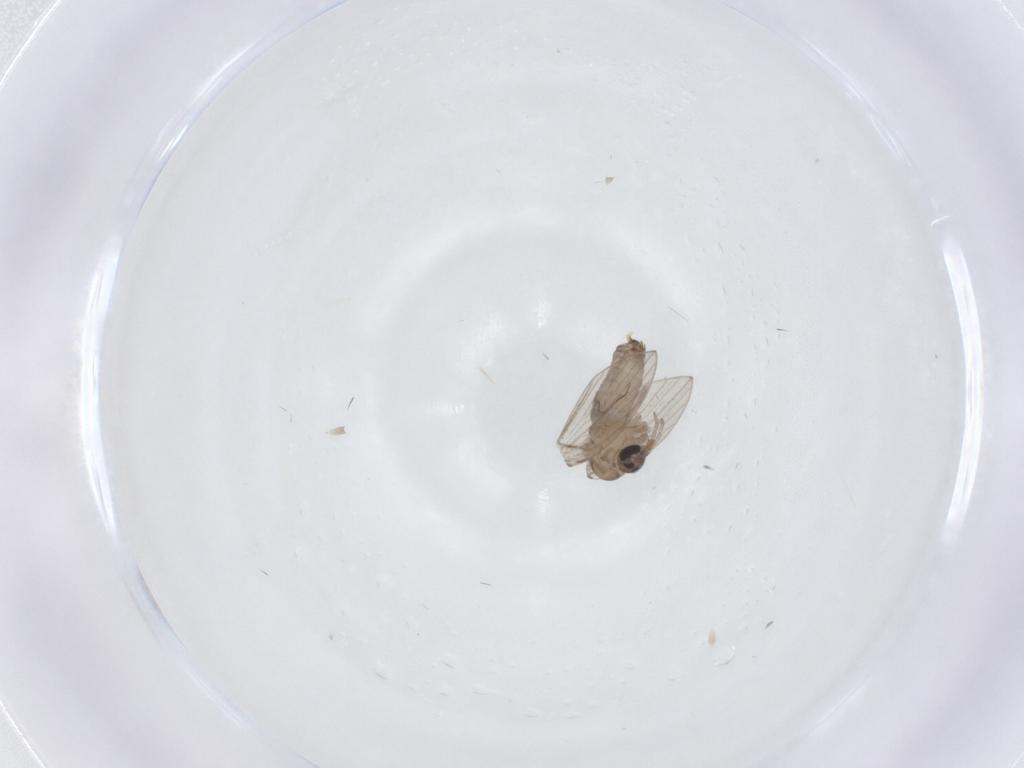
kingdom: Animalia
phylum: Arthropoda
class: Insecta
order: Diptera
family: Psychodidae
